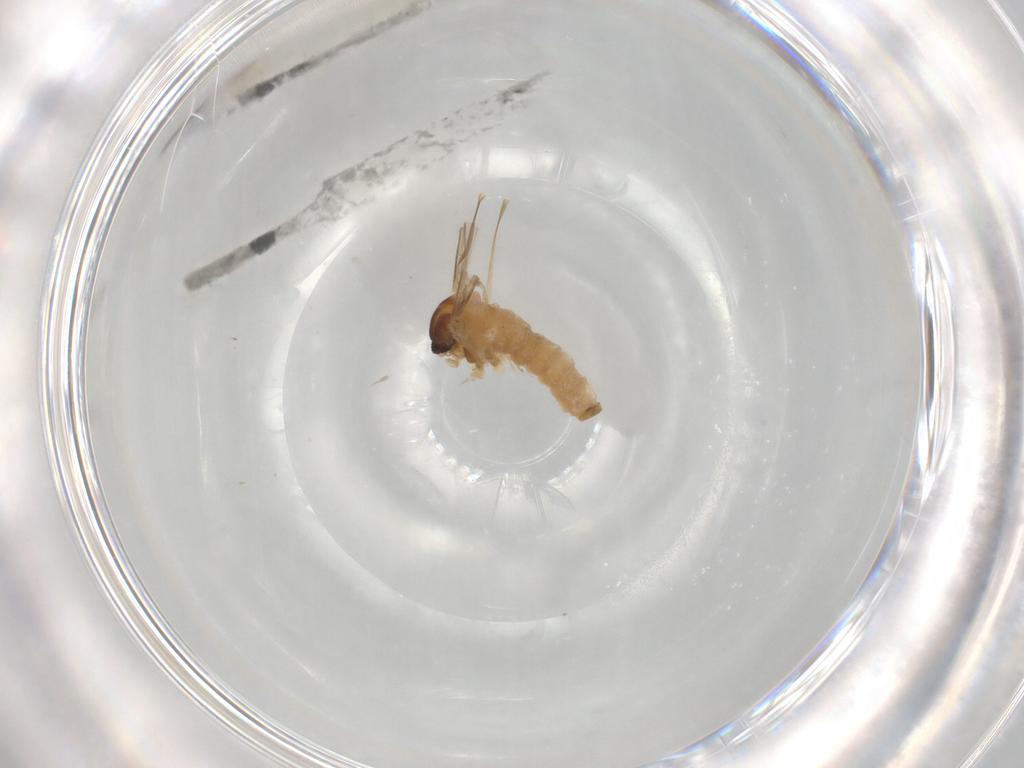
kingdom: Animalia
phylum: Arthropoda
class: Insecta
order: Diptera
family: Cecidomyiidae
